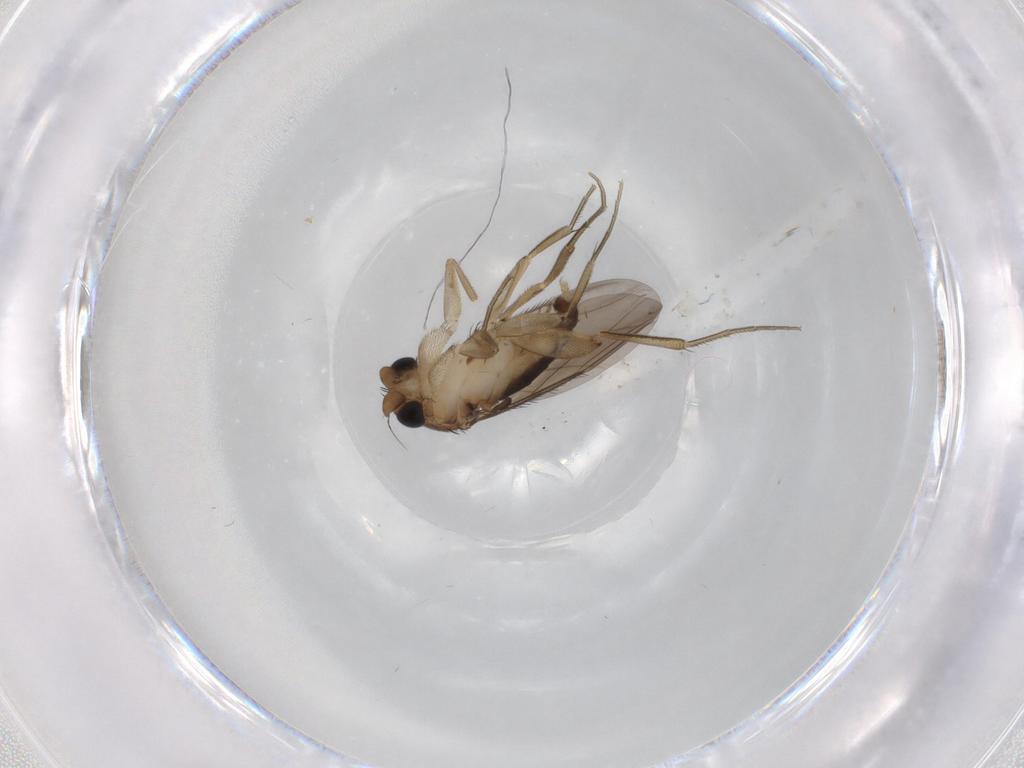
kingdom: Animalia
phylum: Arthropoda
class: Insecta
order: Diptera
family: Phoridae
